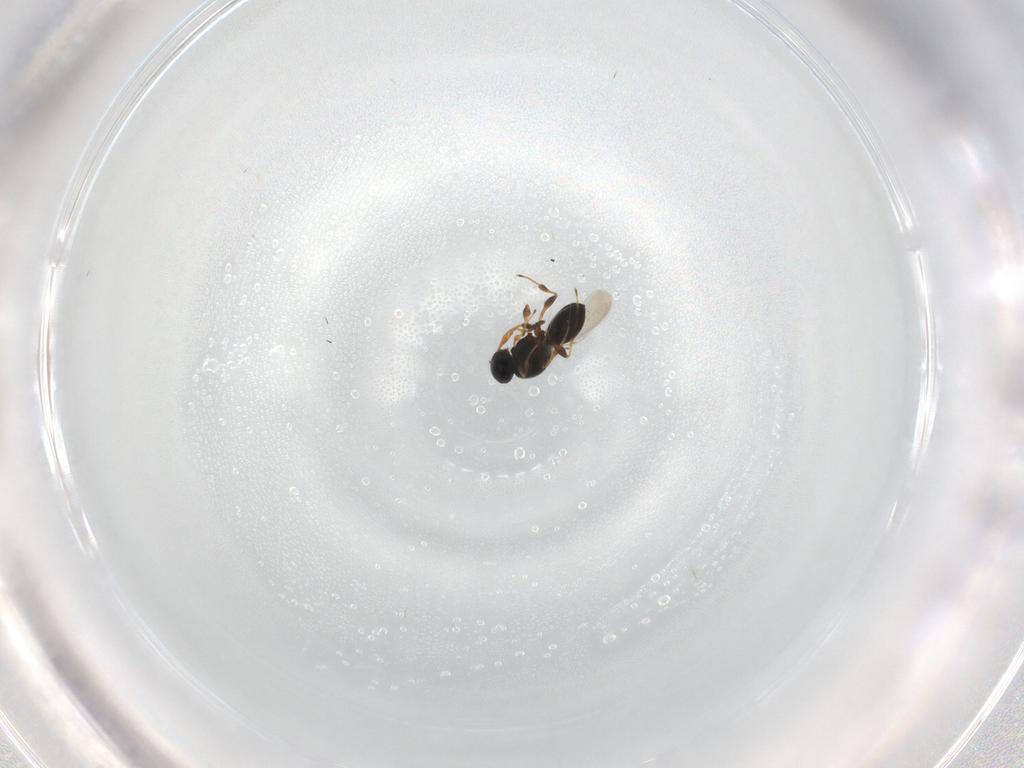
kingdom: Animalia
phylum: Arthropoda
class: Insecta
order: Hymenoptera
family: Platygastridae
